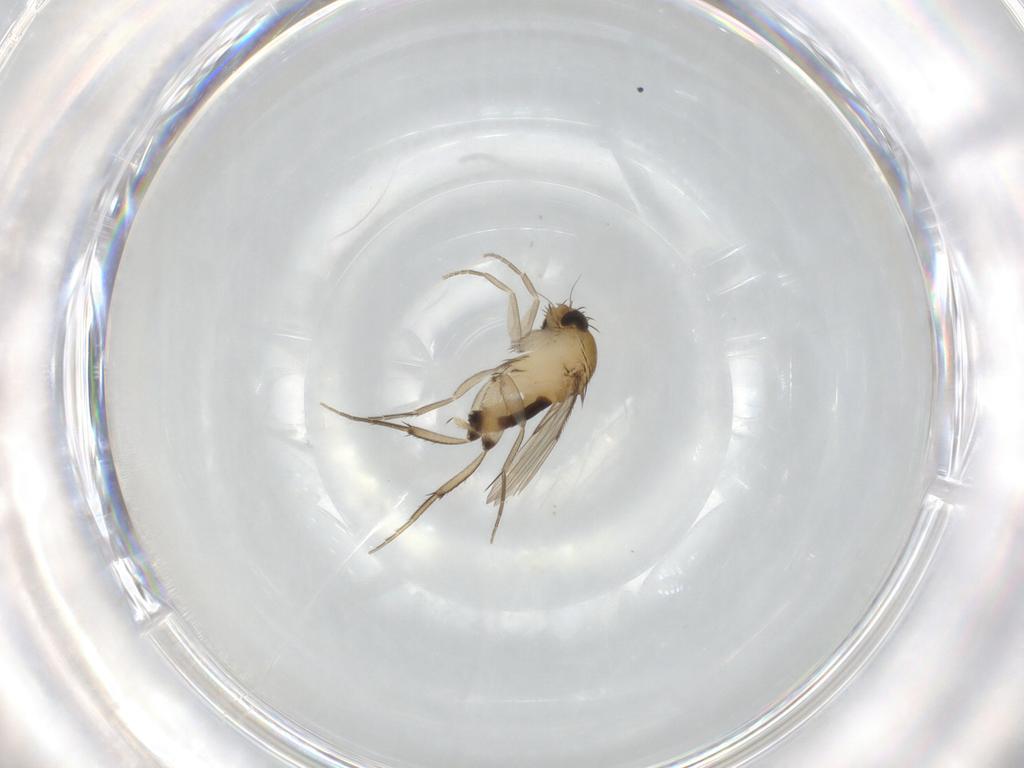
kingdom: Animalia
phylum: Arthropoda
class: Insecta
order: Diptera
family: Phoridae
